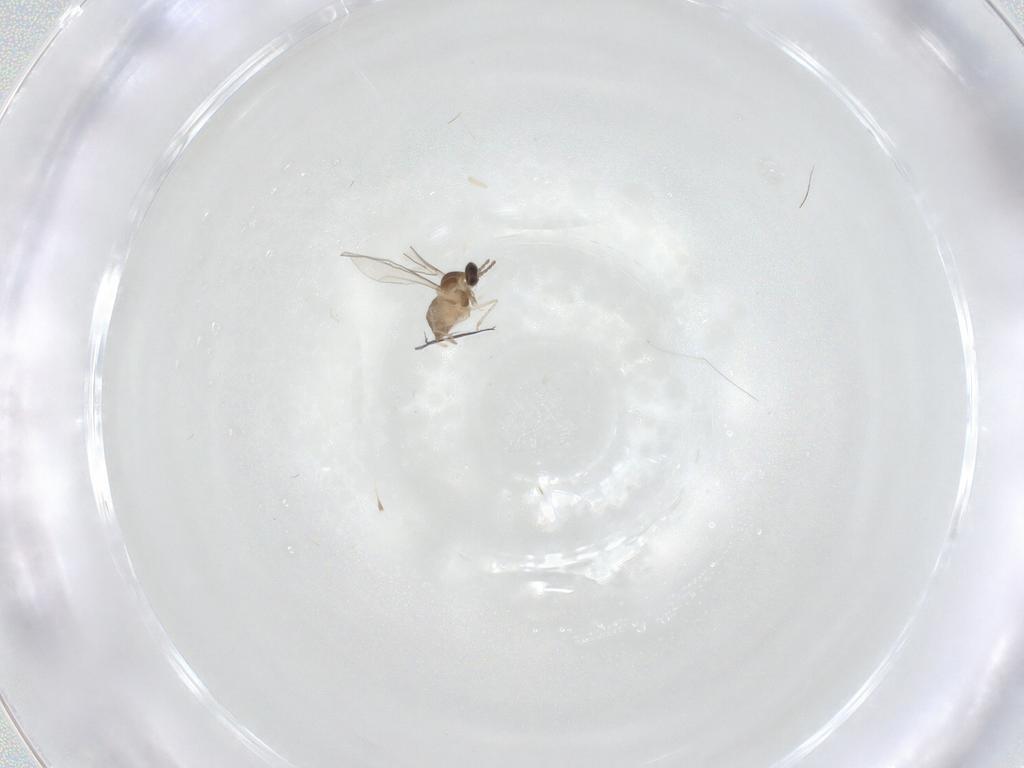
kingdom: Animalia
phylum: Arthropoda
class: Insecta
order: Diptera
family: Cecidomyiidae
